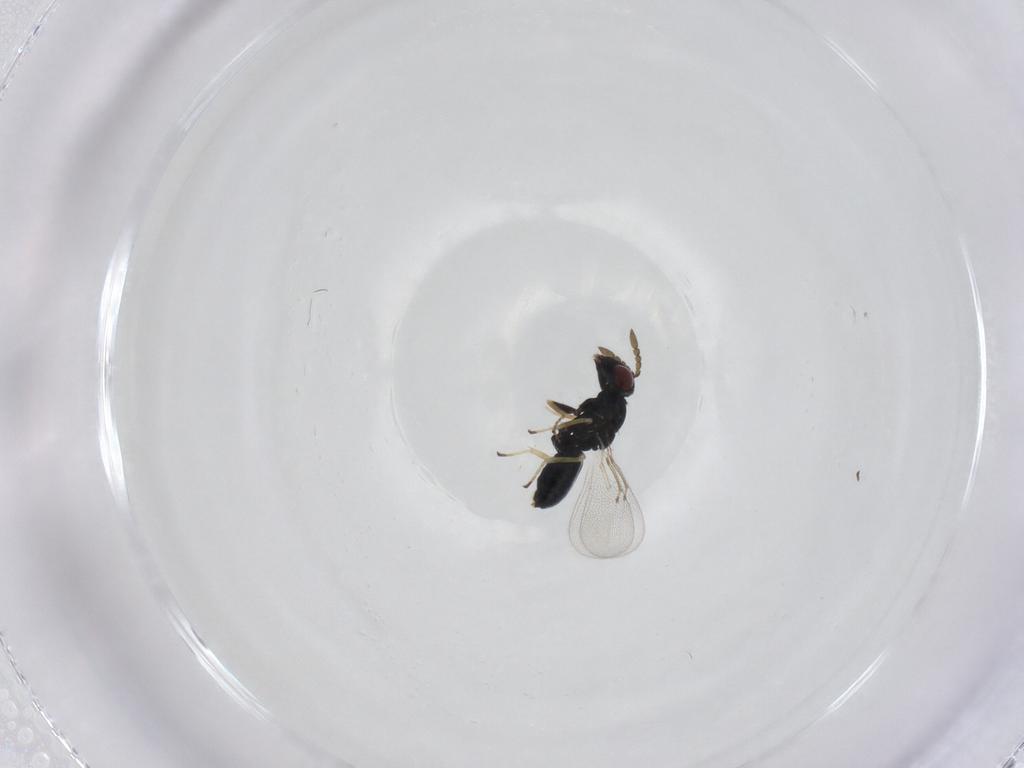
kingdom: Animalia
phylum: Arthropoda
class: Insecta
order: Hymenoptera
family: Eulophidae
